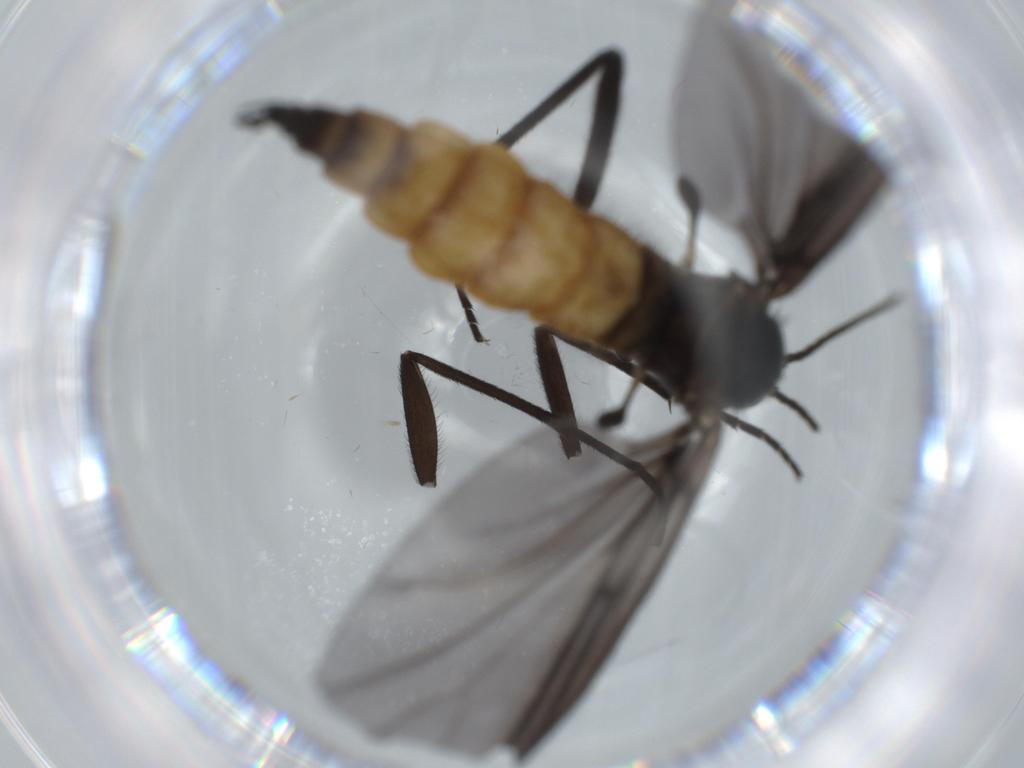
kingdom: Animalia
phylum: Arthropoda
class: Insecta
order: Diptera
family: Sciaridae
